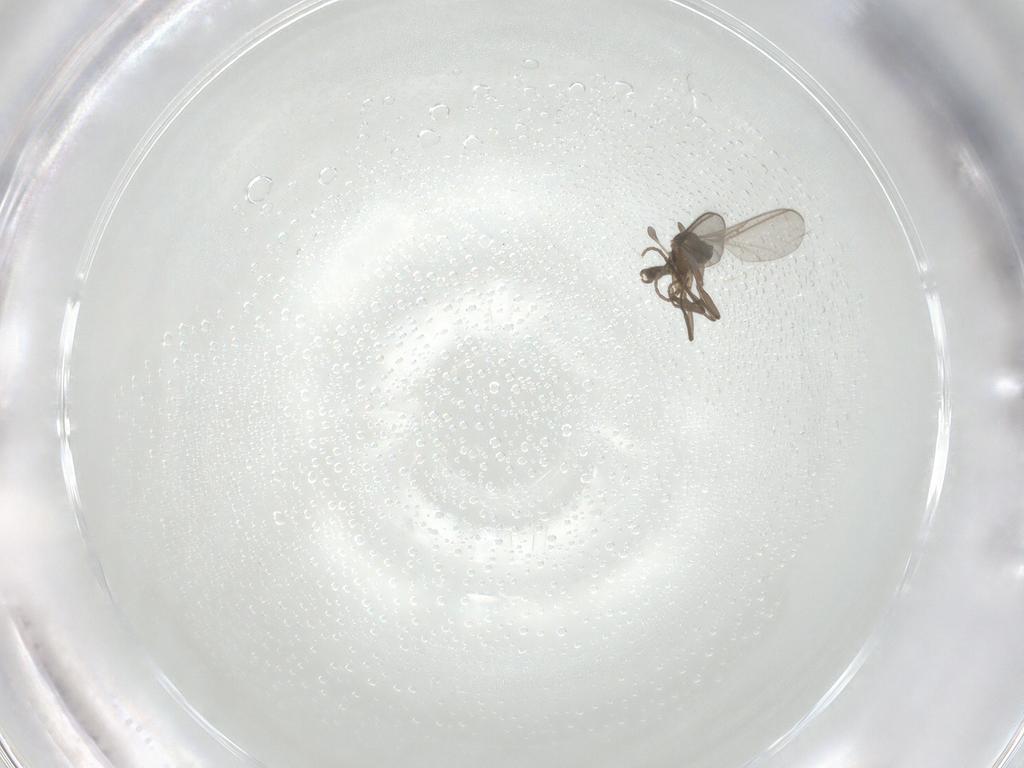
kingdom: Animalia
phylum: Arthropoda
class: Insecta
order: Diptera
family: Sciaridae
